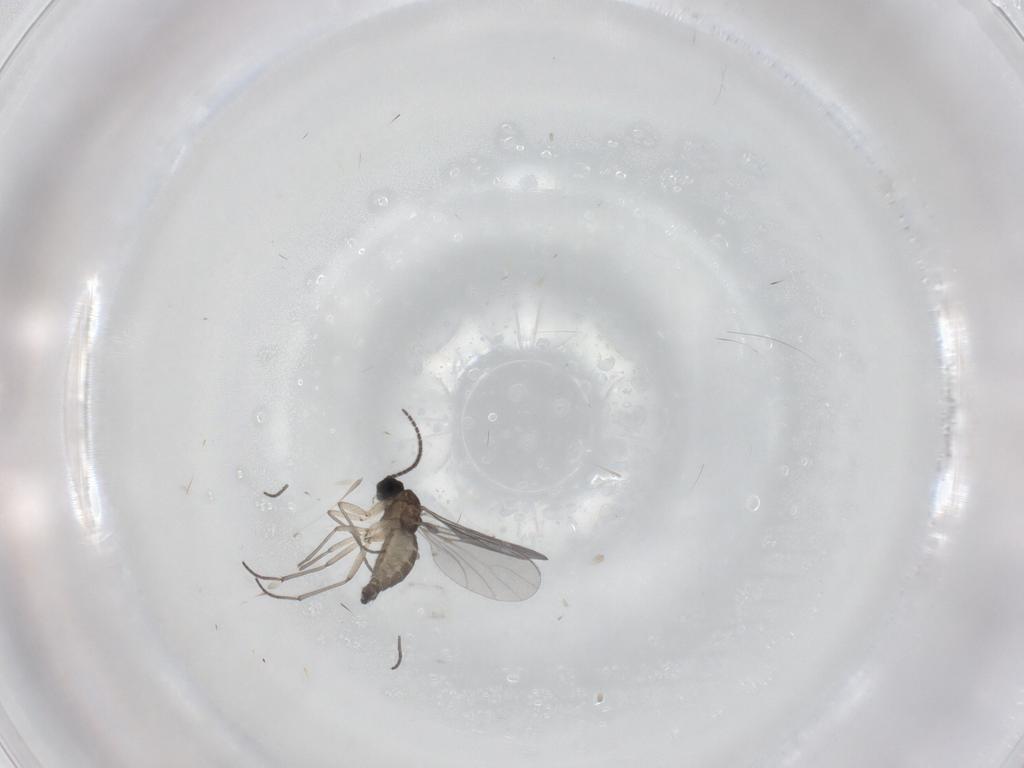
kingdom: Animalia
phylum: Arthropoda
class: Insecta
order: Diptera
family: Sciaridae
